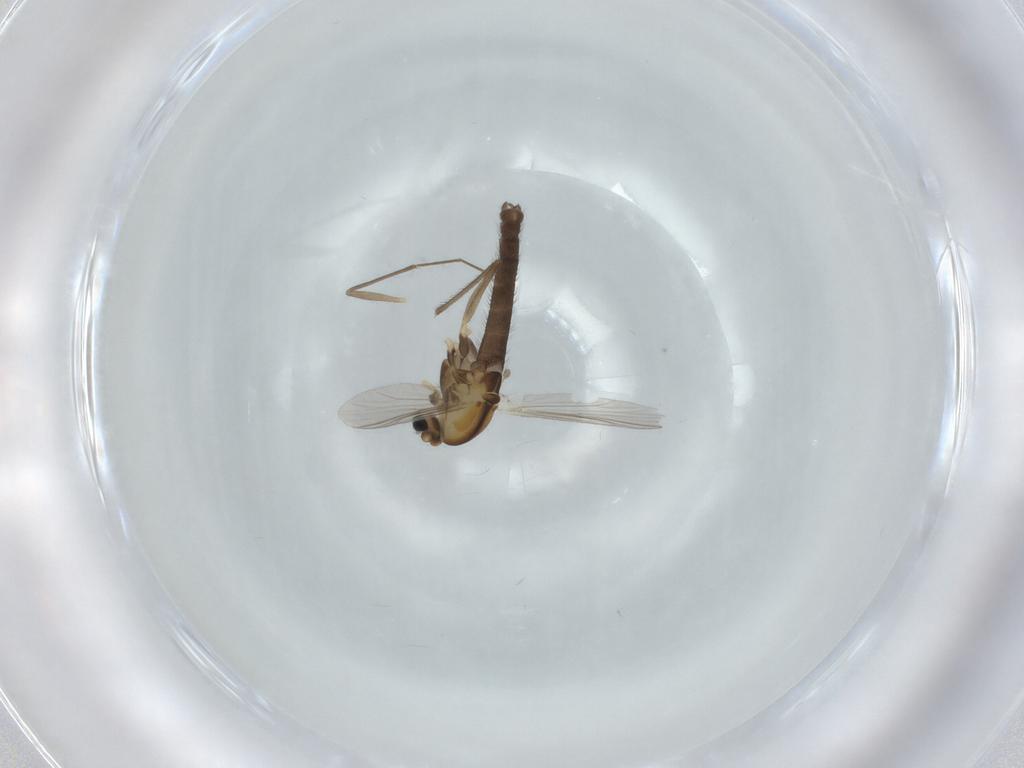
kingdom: Animalia
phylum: Arthropoda
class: Insecta
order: Diptera
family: Chironomidae
